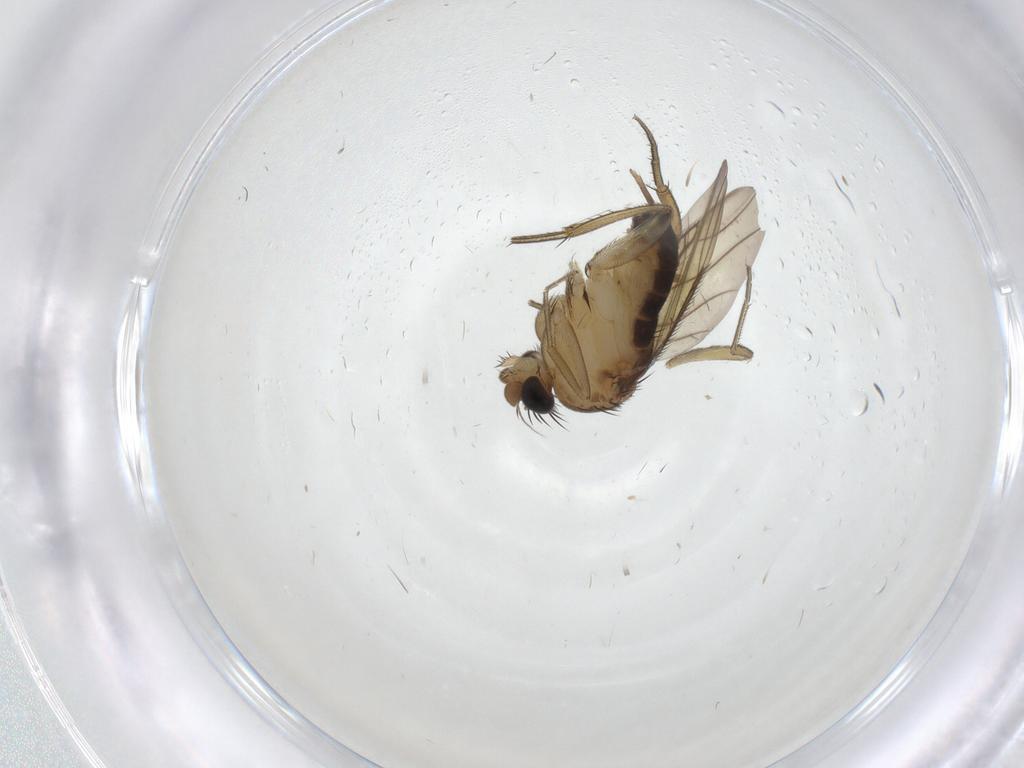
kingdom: Animalia
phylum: Arthropoda
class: Insecta
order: Diptera
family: Phoridae
